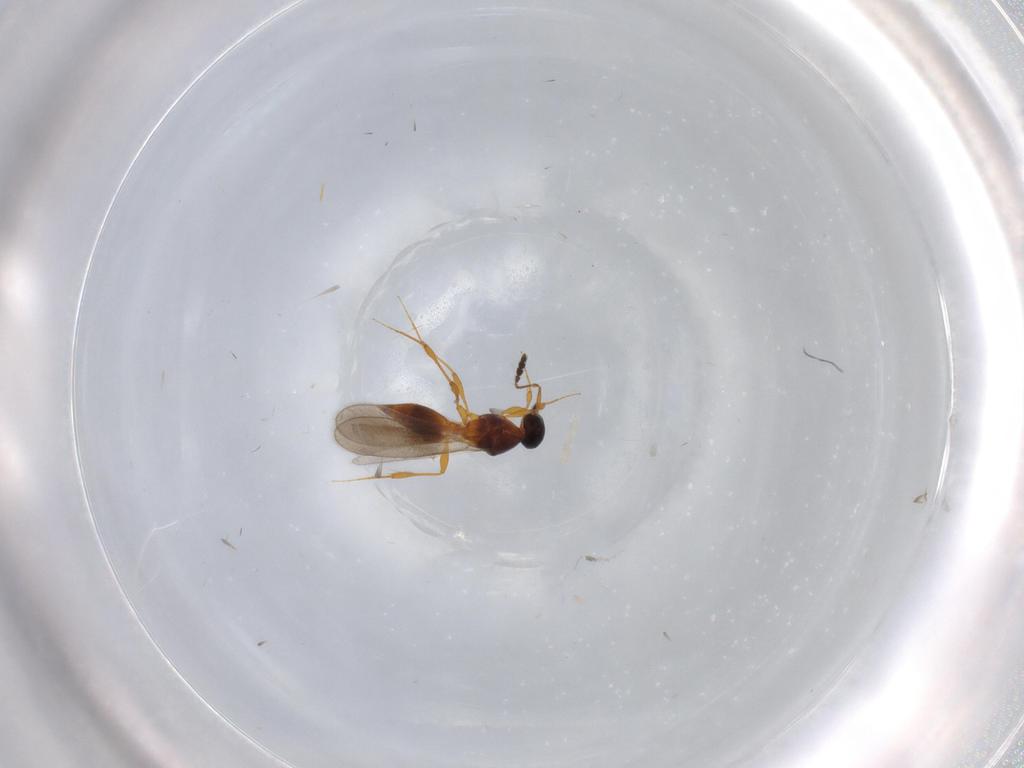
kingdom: Animalia
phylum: Arthropoda
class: Insecta
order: Hymenoptera
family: Platygastridae
